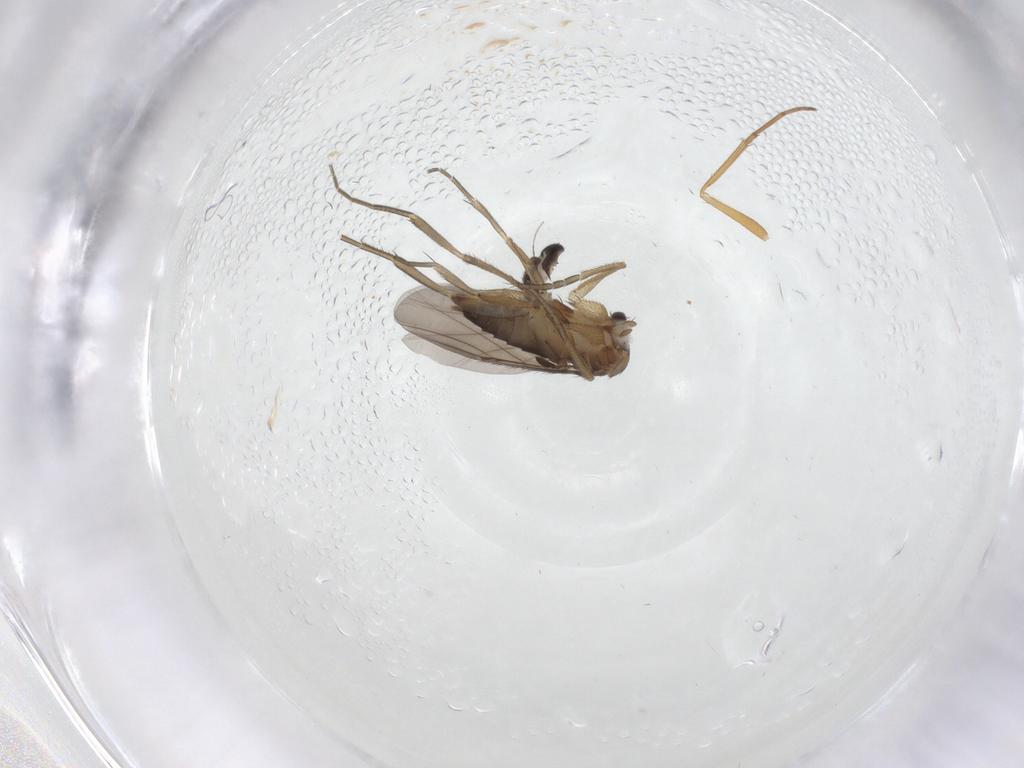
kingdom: Animalia
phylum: Arthropoda
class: Insecta
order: Diptera
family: Phoridae
